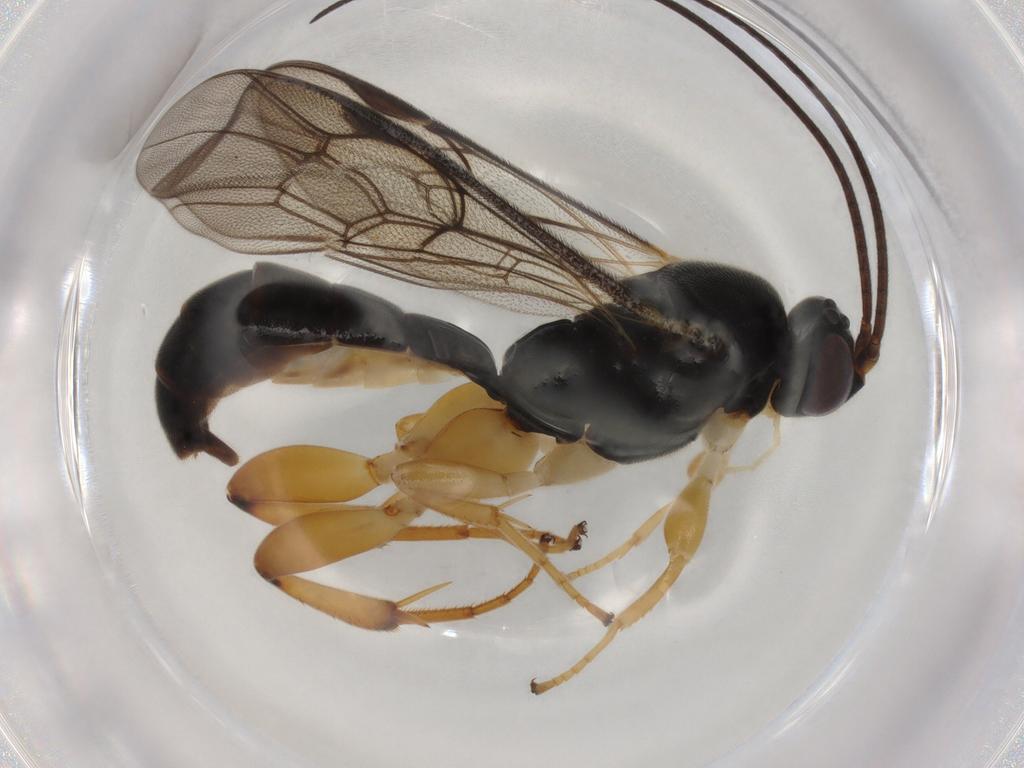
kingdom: Animalia
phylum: Arthropoda
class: Insecta
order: Hymenoptera
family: Ichneumonidae
